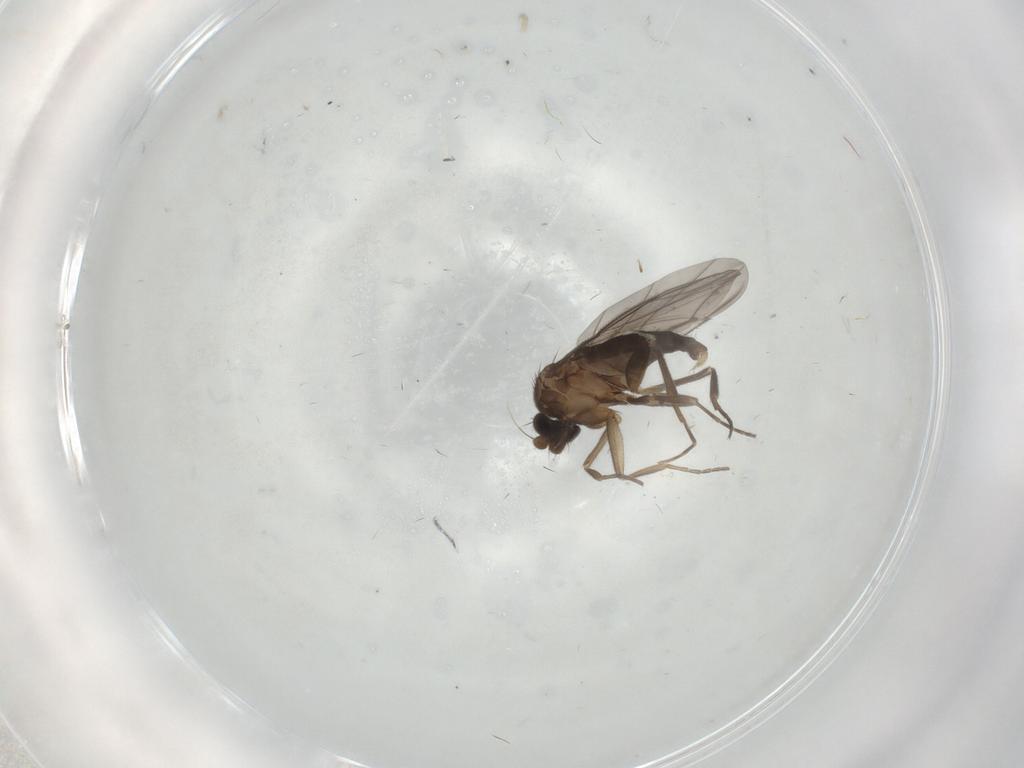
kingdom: Animalia
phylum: Arthropoda
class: Insecta
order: Diptera
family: Phoridae
